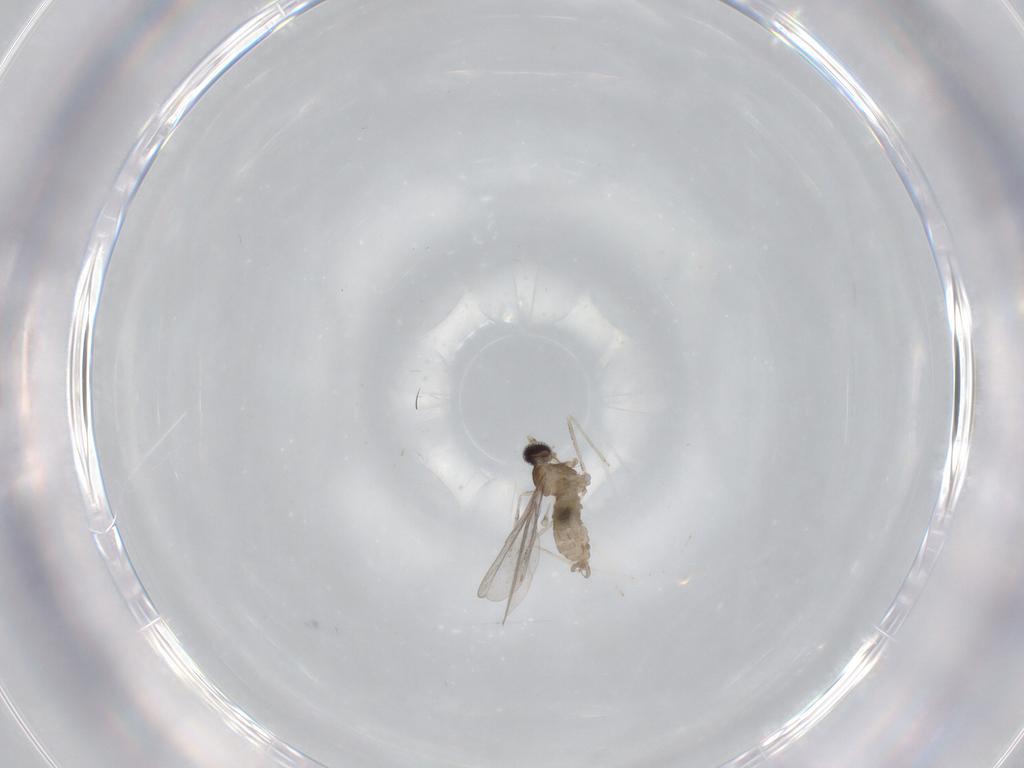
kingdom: Animalia
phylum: Arthropoda
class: Insecta
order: Diptera
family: Cecidomyiidae
